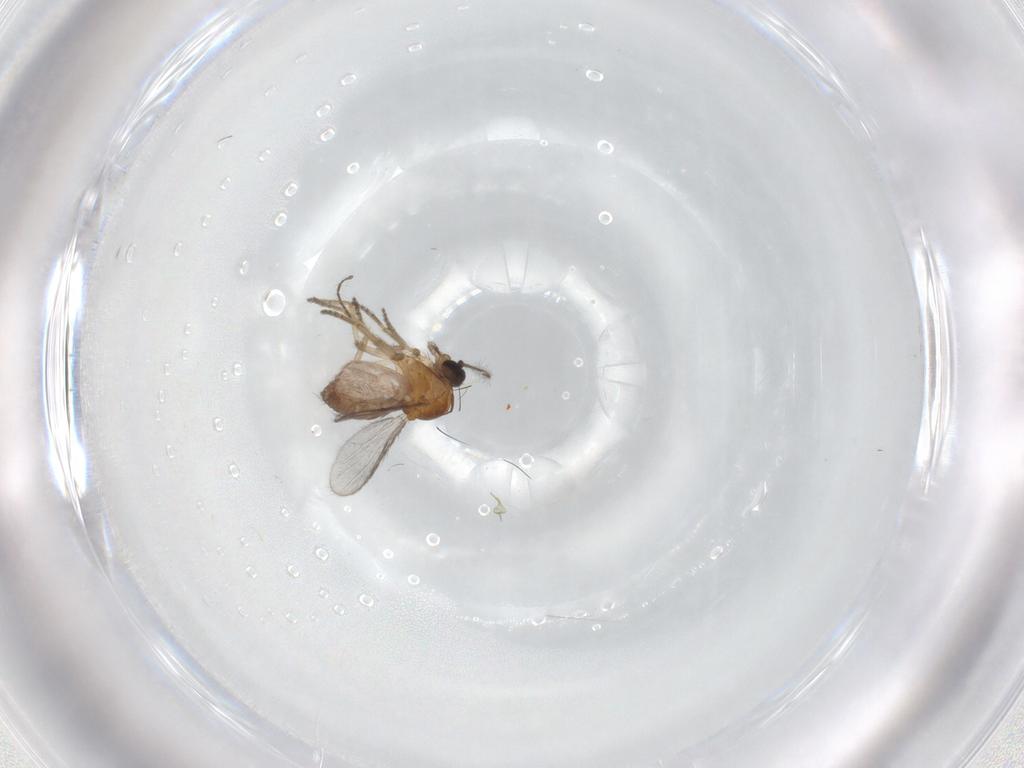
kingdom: Animalia
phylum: Arthropoda
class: Insecta
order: Diptera
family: Ceratopogonidae
